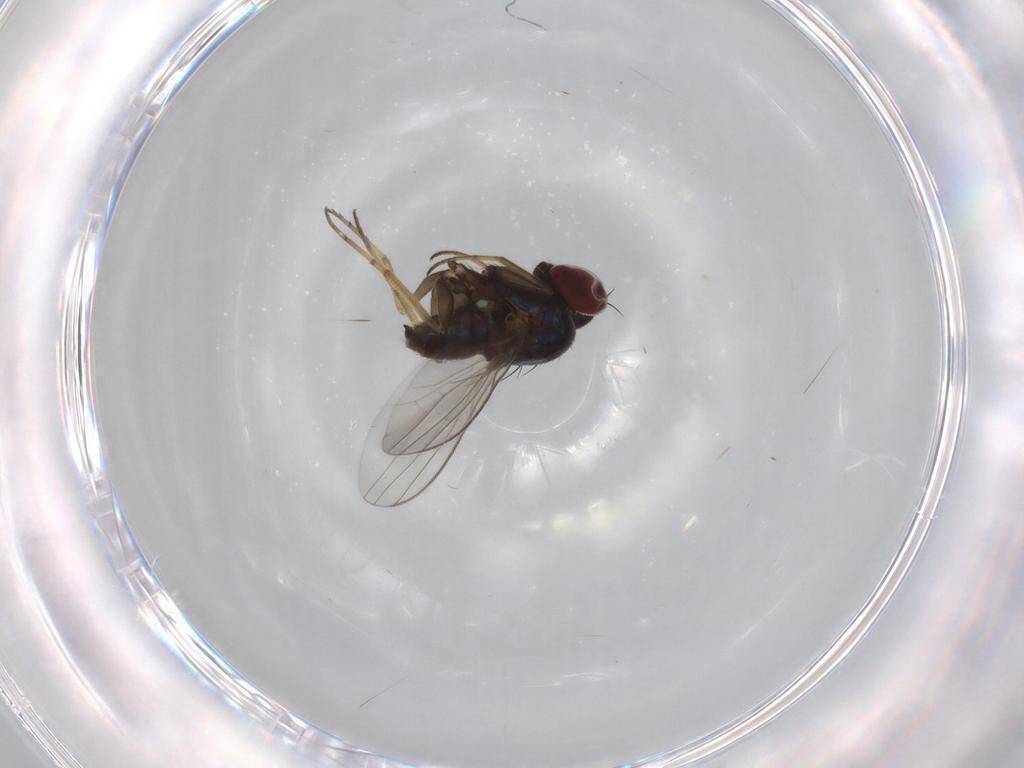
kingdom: Animalia
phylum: Arthropoda
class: Insecta
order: Diptera
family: Dolichopodidae
